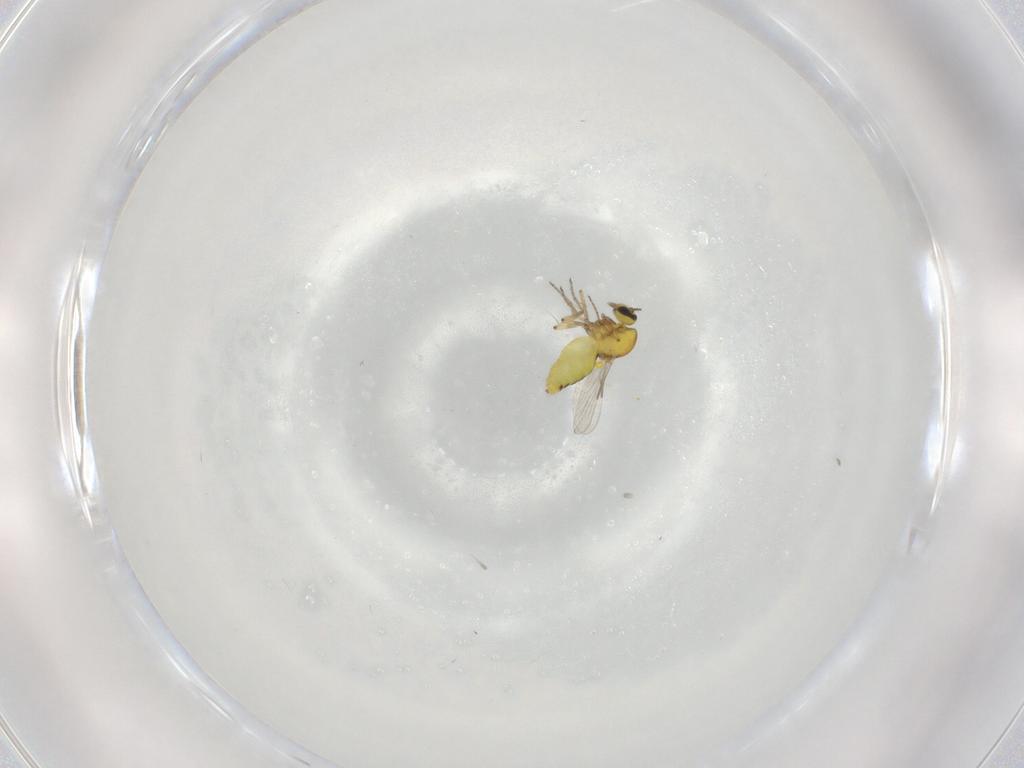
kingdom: Animalia
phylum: Arthropoda
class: Insecta
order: Diptera
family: Ceratopogonidae
